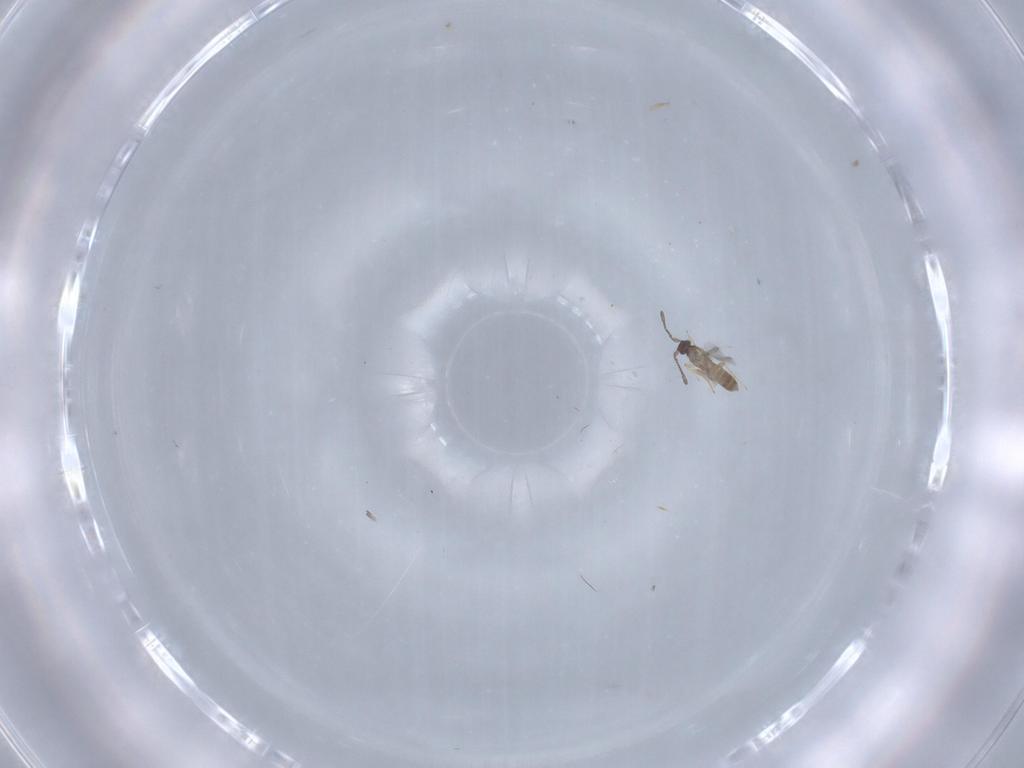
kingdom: Animalia
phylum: Arthropoda
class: Insecta
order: Hymenoptera
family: Mymaridae
